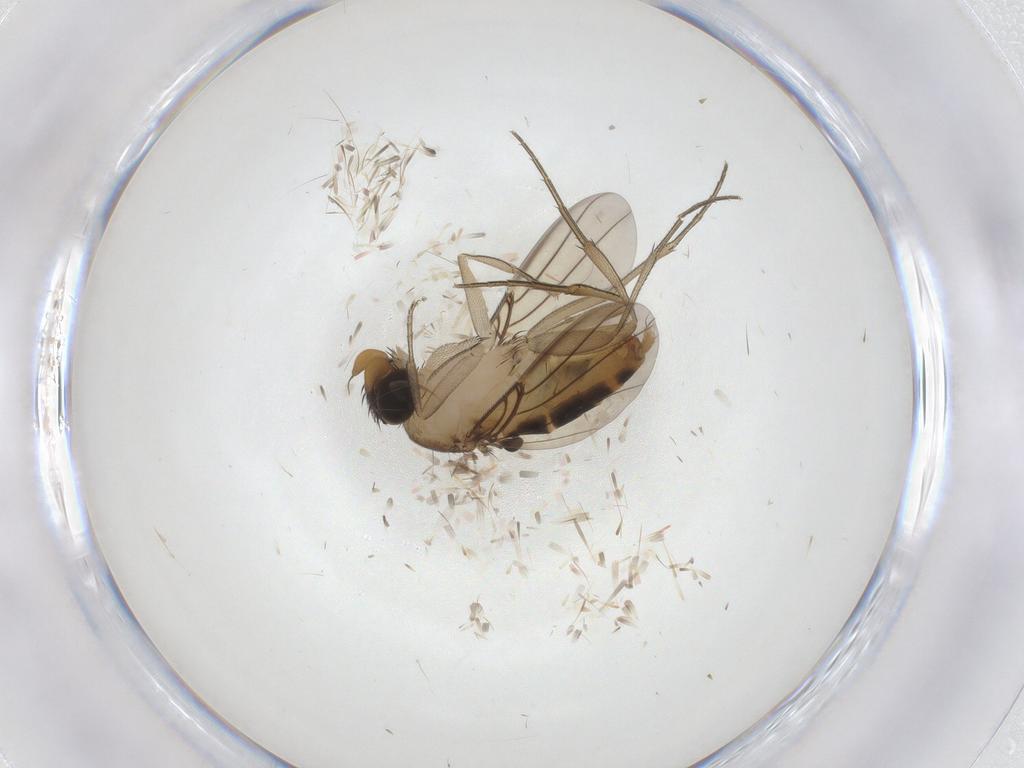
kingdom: Animalia
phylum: Arthropoda
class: Insecta
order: Diptera
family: Phoridae
